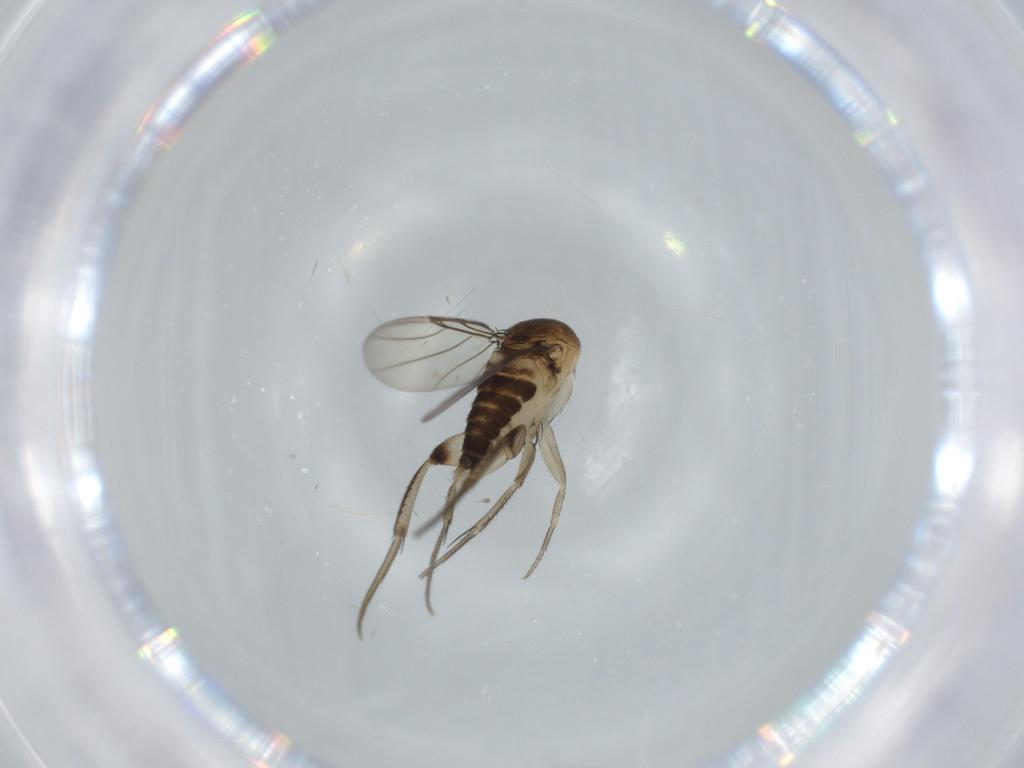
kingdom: Animalia
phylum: Arthropoda
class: Insecta
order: Diptera
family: Phoridae
